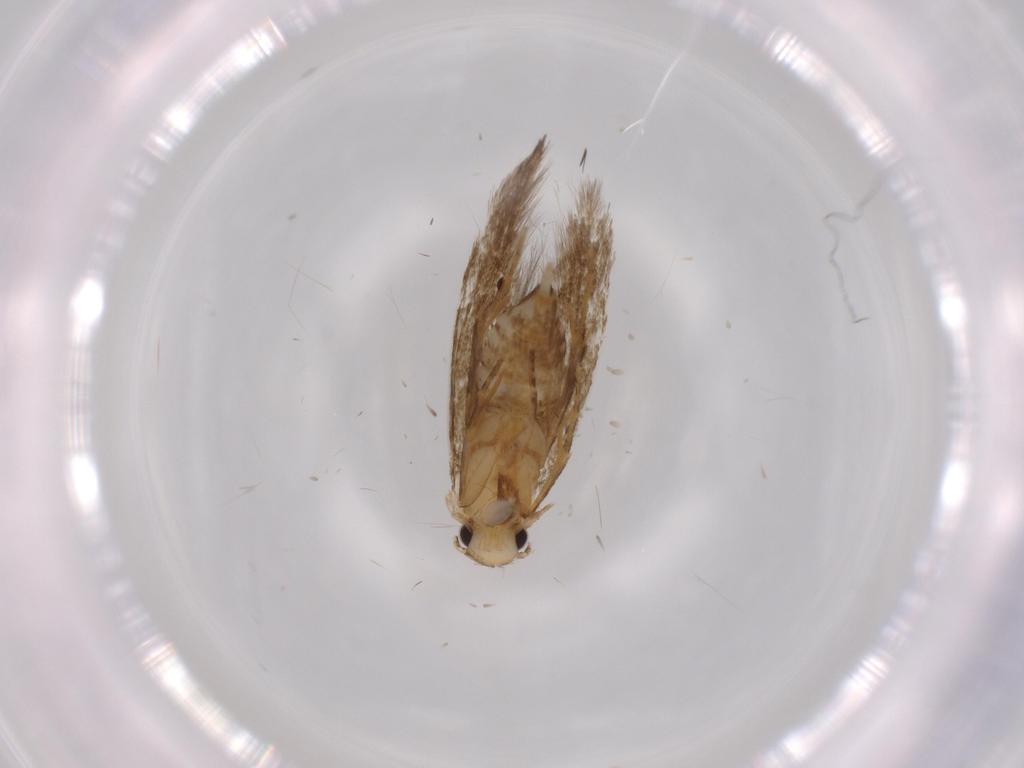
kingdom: Animalia
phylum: Arthropoda
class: Insecta
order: Lepidoptera
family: Tineidae
